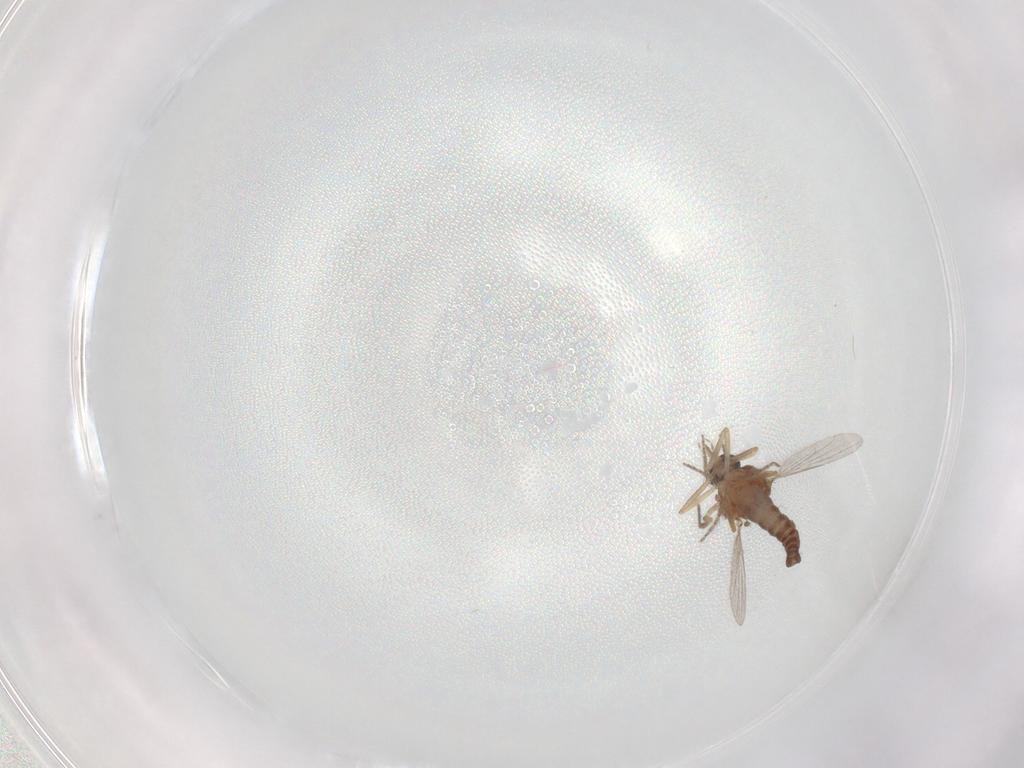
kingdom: Animalia
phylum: Arthropoda
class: Insecta
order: Diptera
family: Ceratopogonidae
